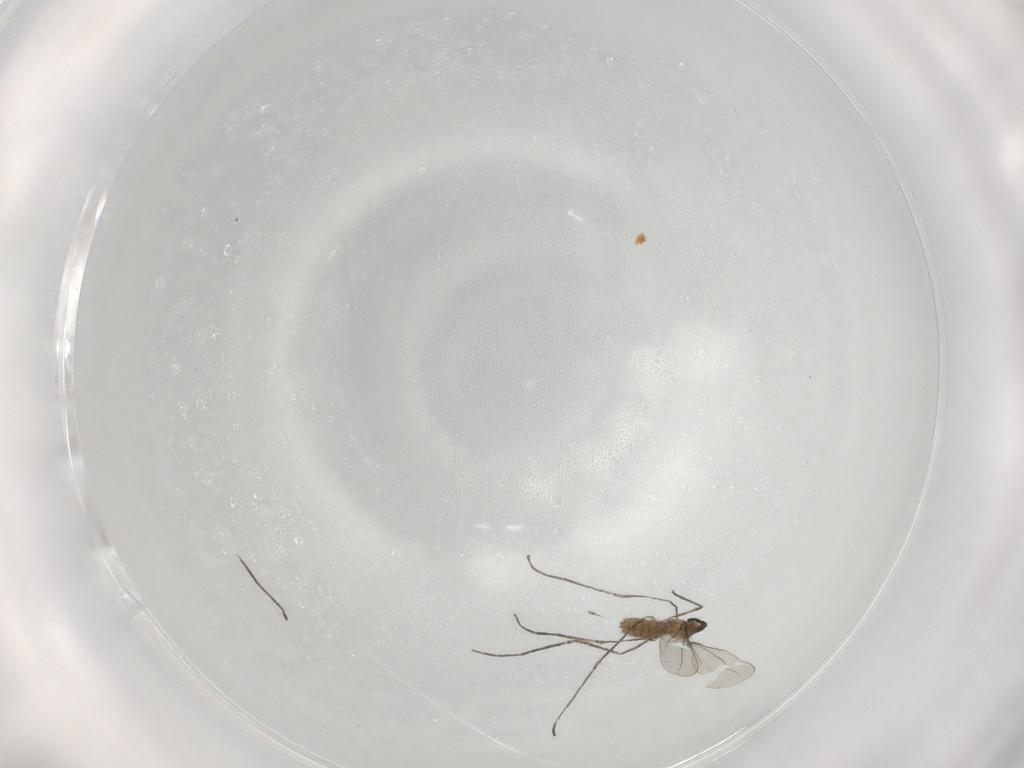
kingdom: Animalia
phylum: Arthropoda
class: Insecta
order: Diptera
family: Cecidomyiidae
